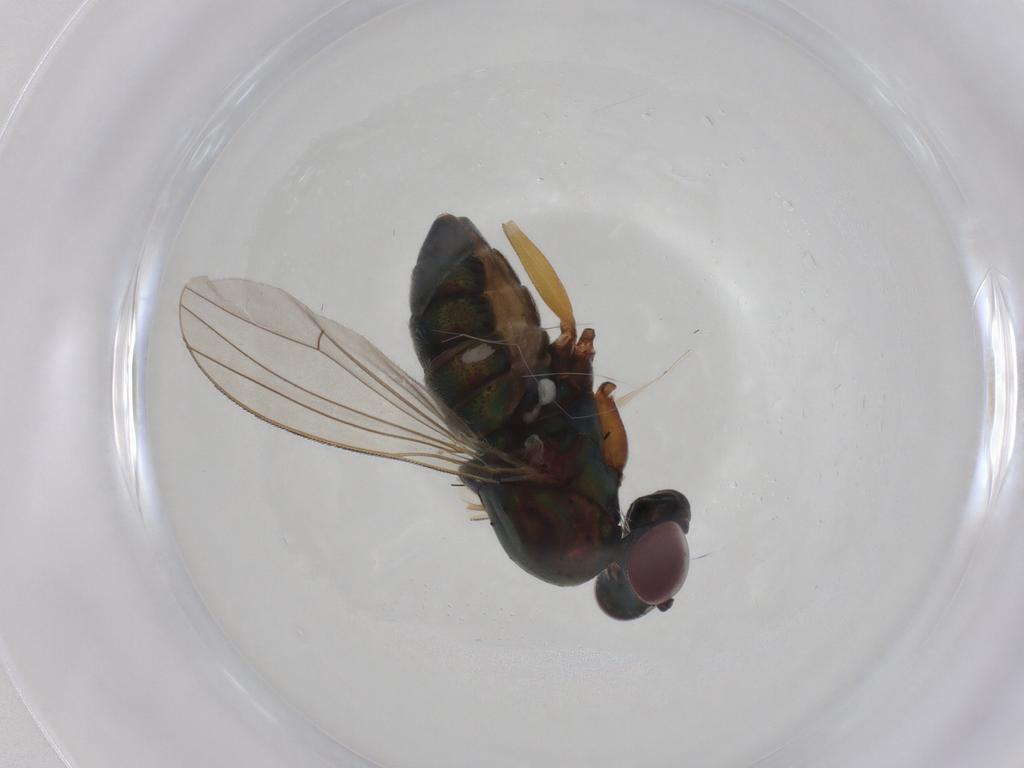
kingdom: Animalia
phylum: Arthropoda
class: Insecta
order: Diptera
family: Chironomidae
